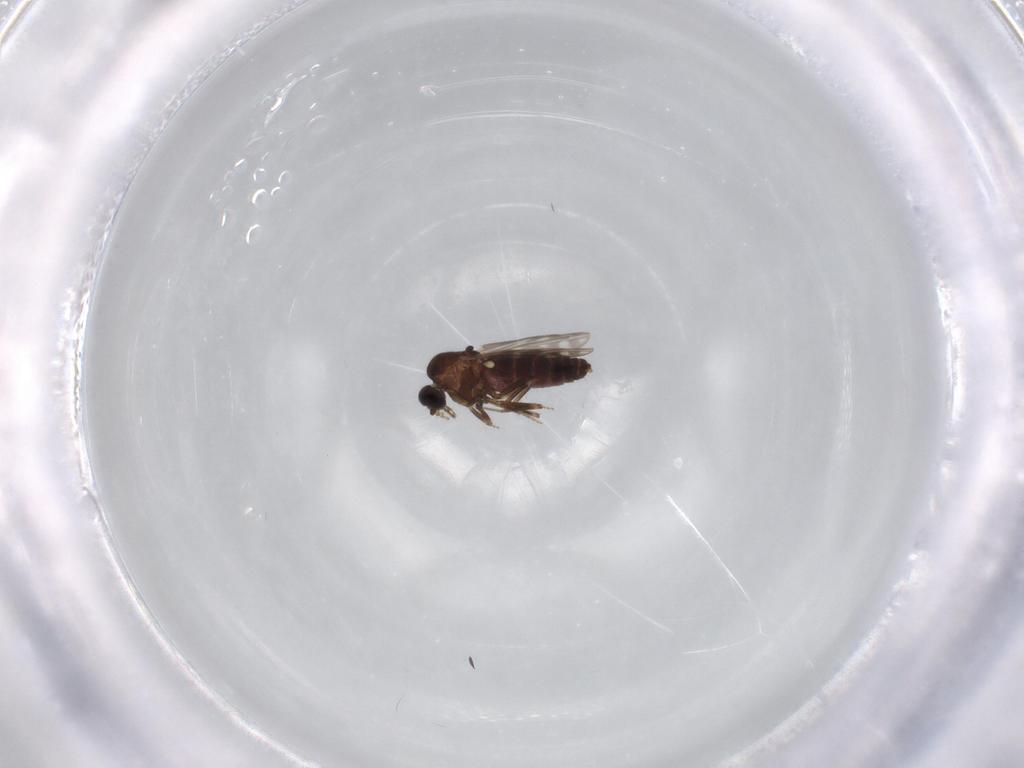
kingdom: Animalia
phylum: Arthropoda
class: Insecta
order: Diptera
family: Ceratopogonidae
